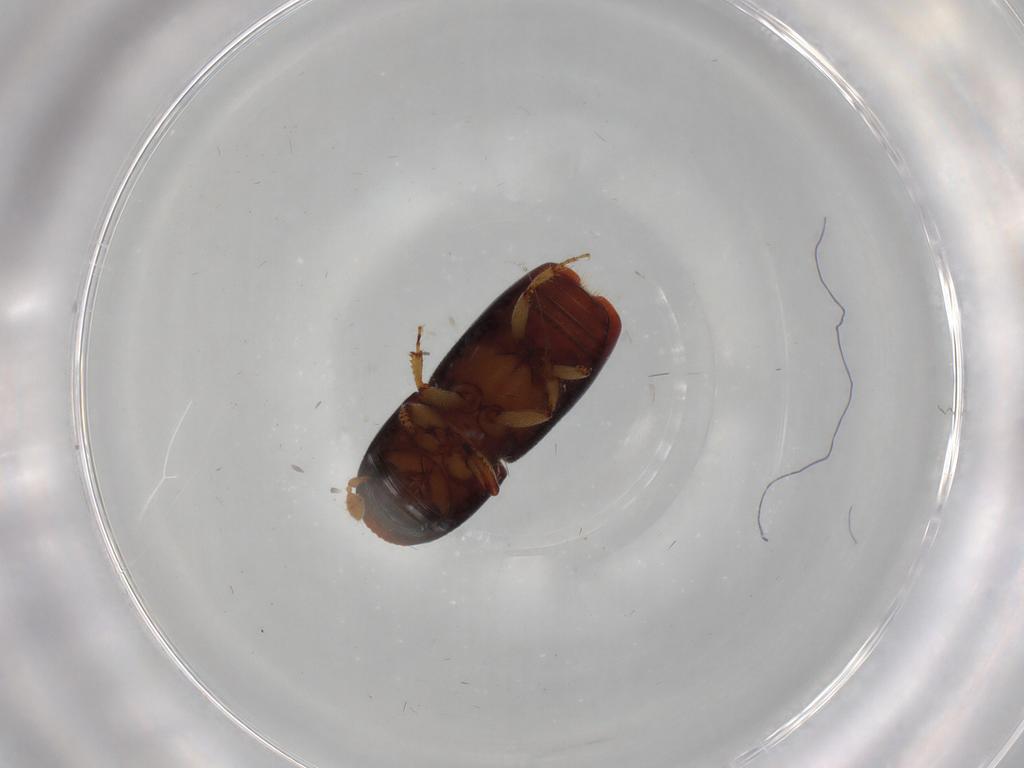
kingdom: Animalia
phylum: Arthropoda
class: Insecta
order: Coleoptera
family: Curculionidae
